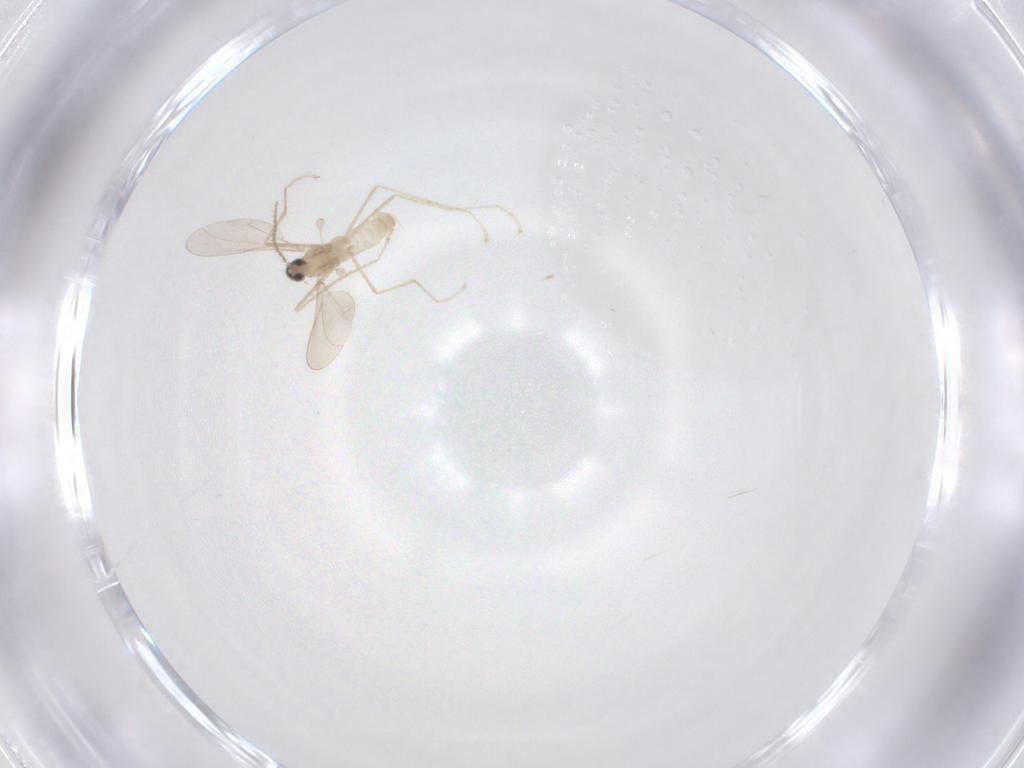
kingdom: Animalia
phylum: Arthropoda
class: Insecta
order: Diptera
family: Cecidomyiidae
